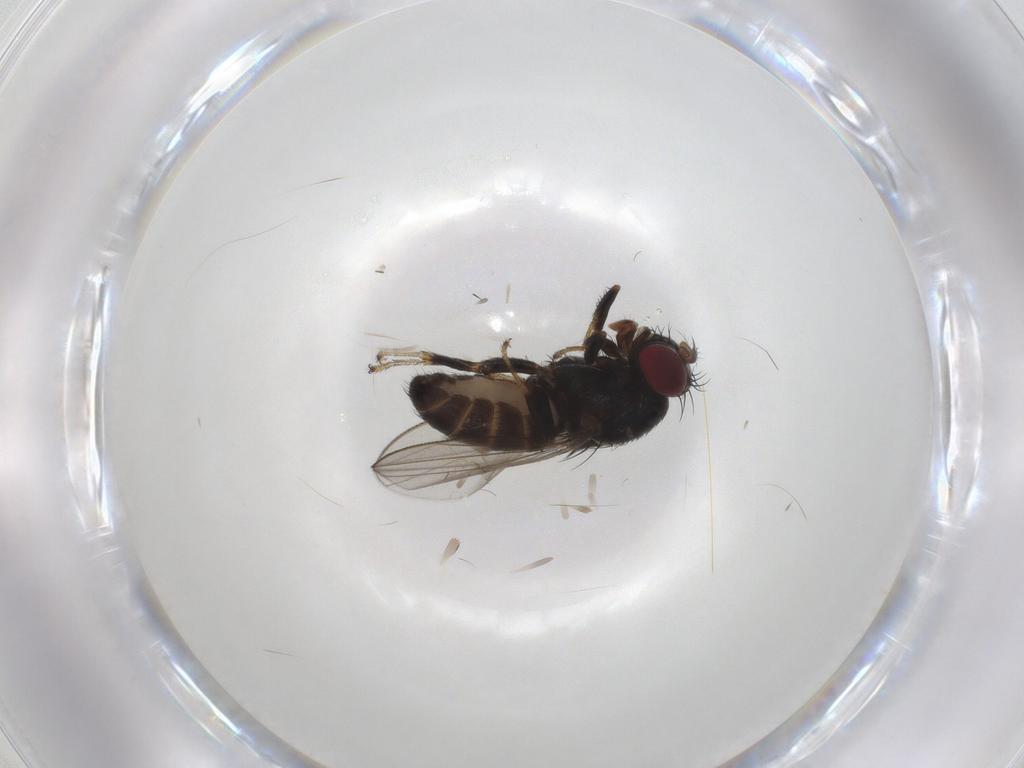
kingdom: Animalia
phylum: Arthropoda
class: Insecta
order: Diptera
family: Ephydridae
